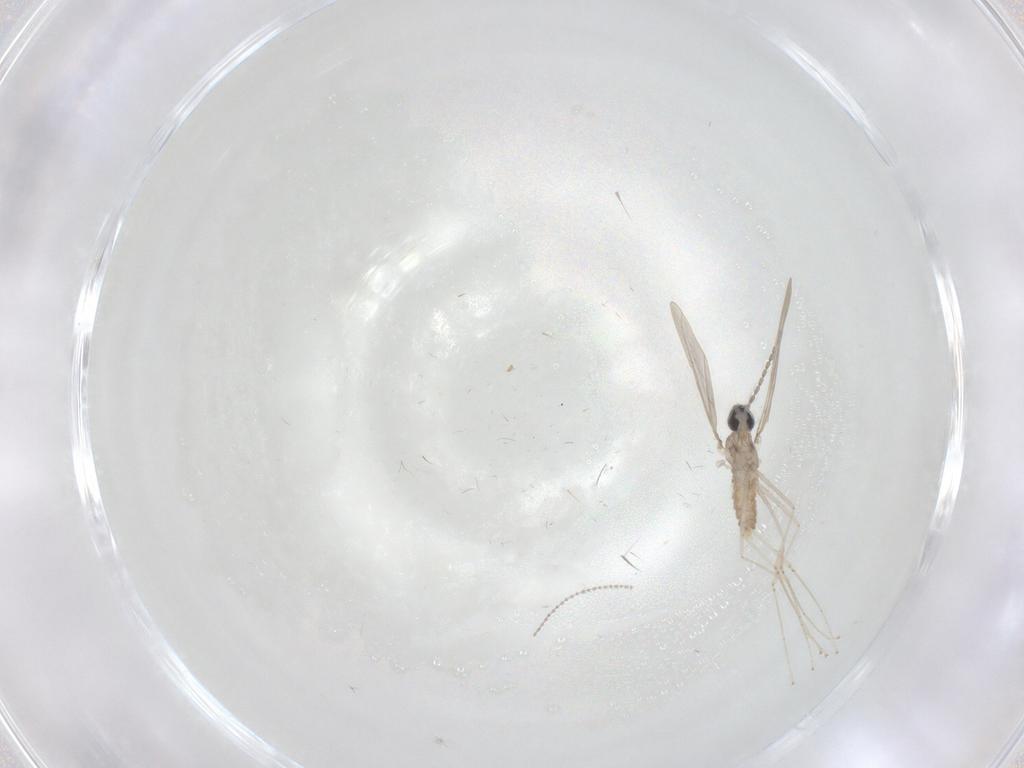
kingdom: Animalia
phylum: Arthropoda
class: Insecta
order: Diptera
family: Cecidomyiidae
